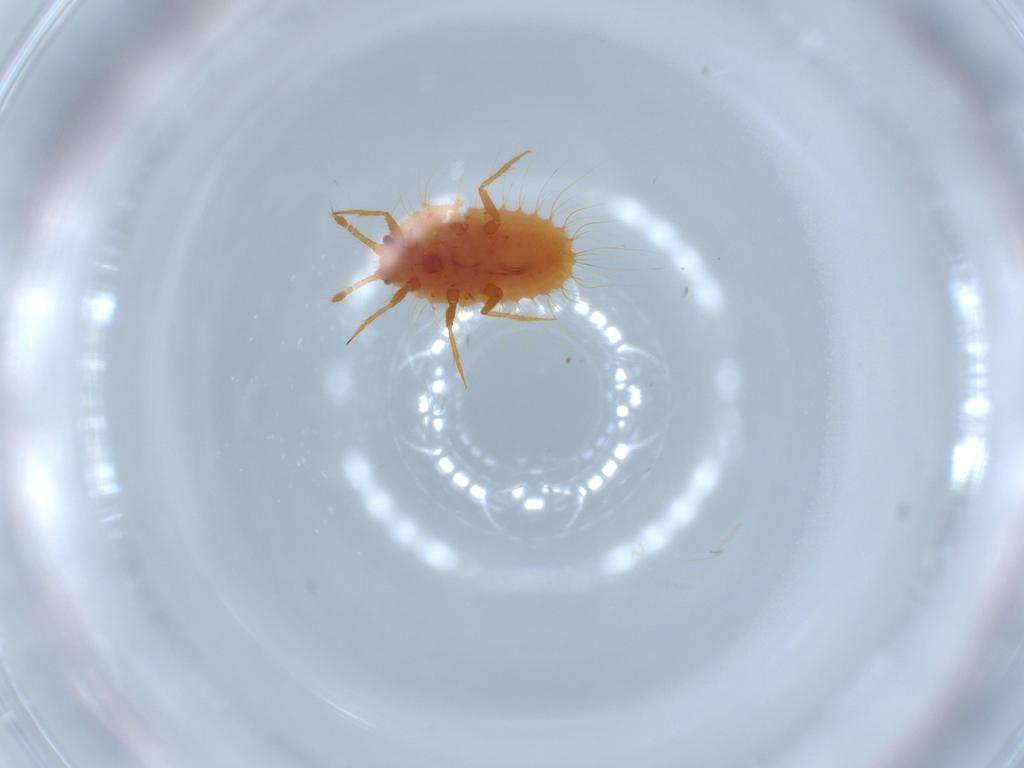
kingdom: Animalia
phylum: Arthropoda
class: Insecta
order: Hemiptera
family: Coccoidea_incertae_sedis
